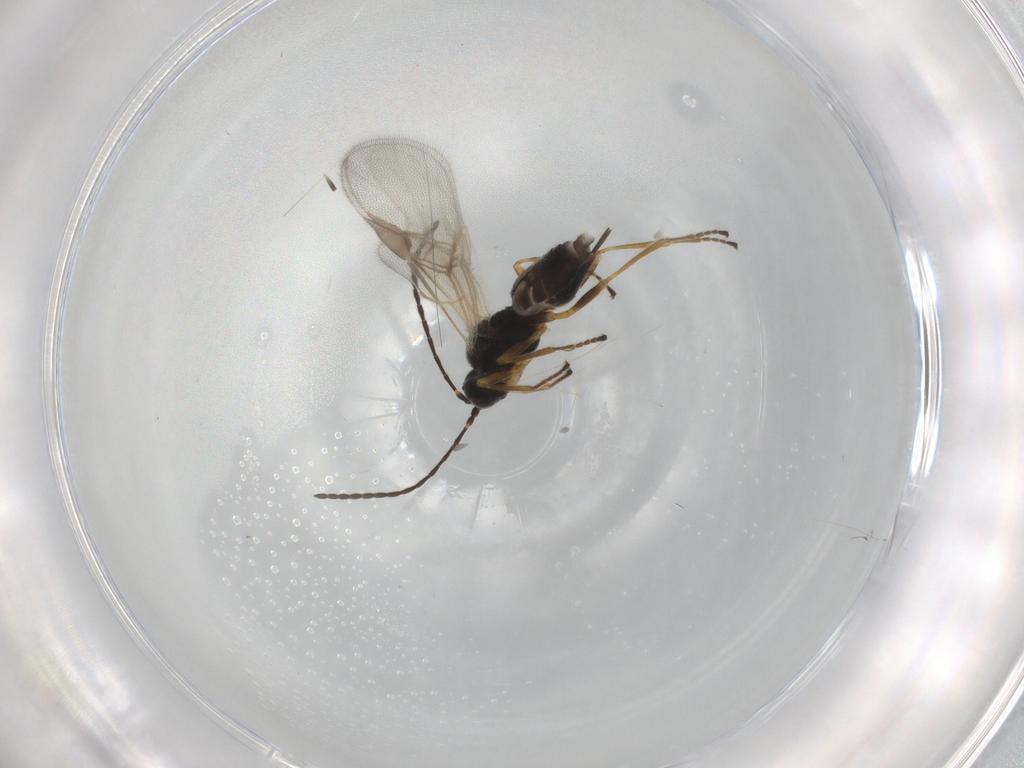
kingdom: Animalia
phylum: Arthropoda
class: Insecta
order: Hymenoptera
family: Braconidae
